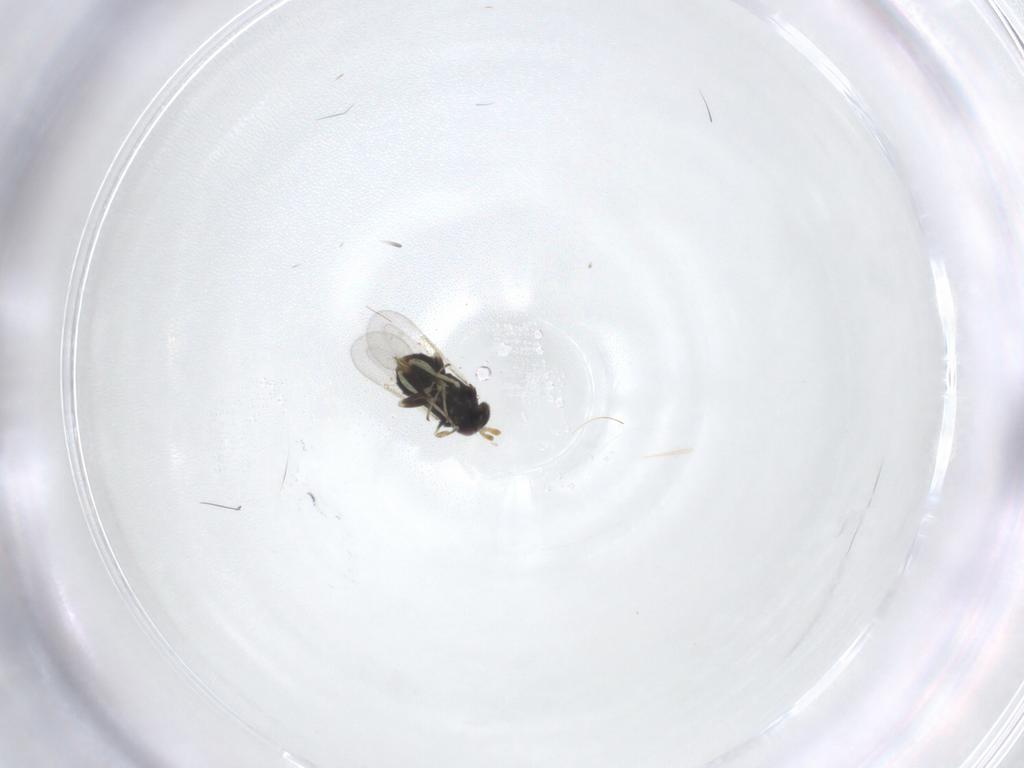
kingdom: Animalia
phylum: Arthropoda
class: Insecta
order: Hymenoptera
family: Aphelinidae
